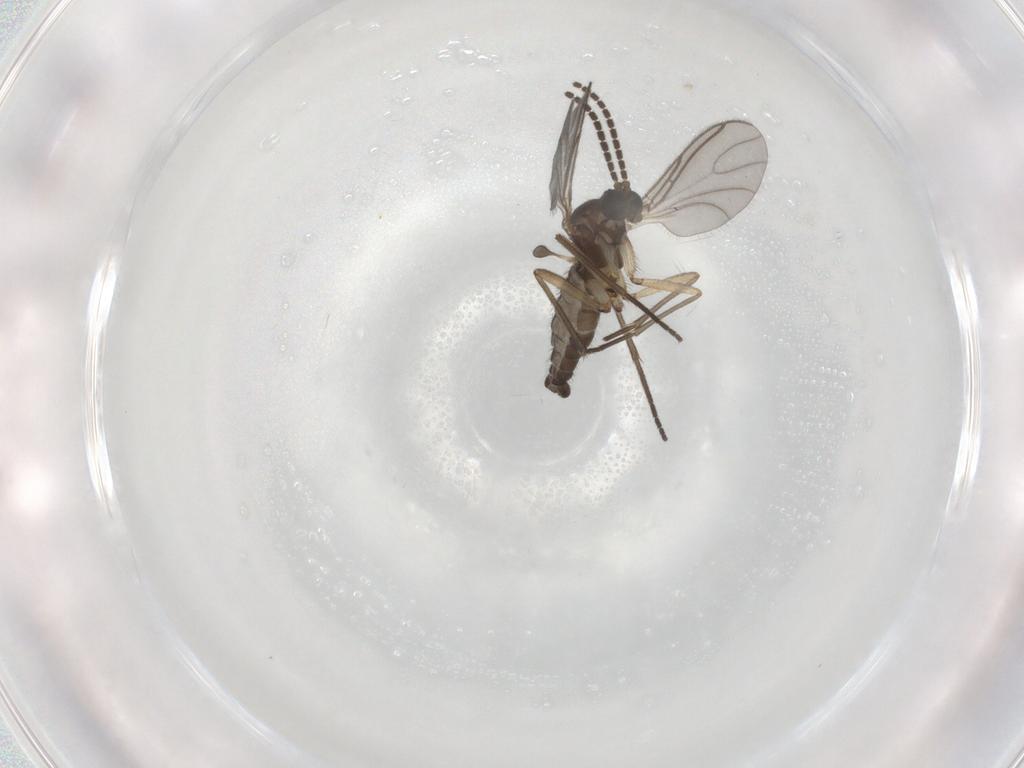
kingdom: Animalia
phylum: Arthropoda
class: Insecta
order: Diptera
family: Sciaridae
